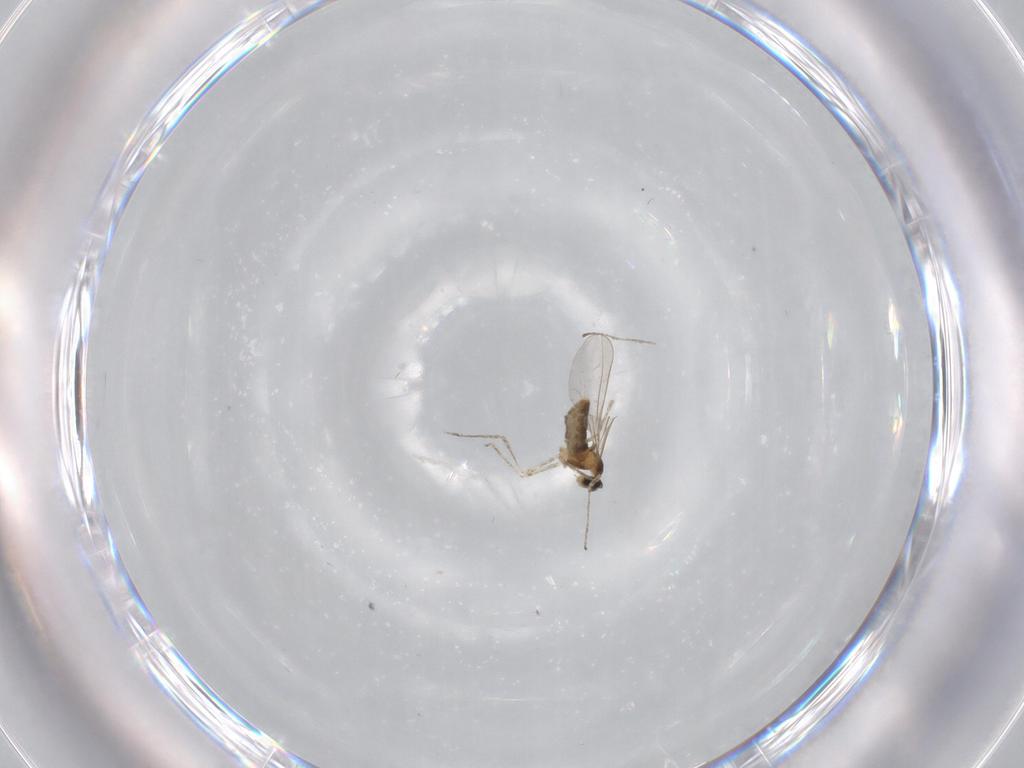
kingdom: Animalia
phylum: Arthropoda
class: Insecta
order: Diptera
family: Cecidomyiidae
